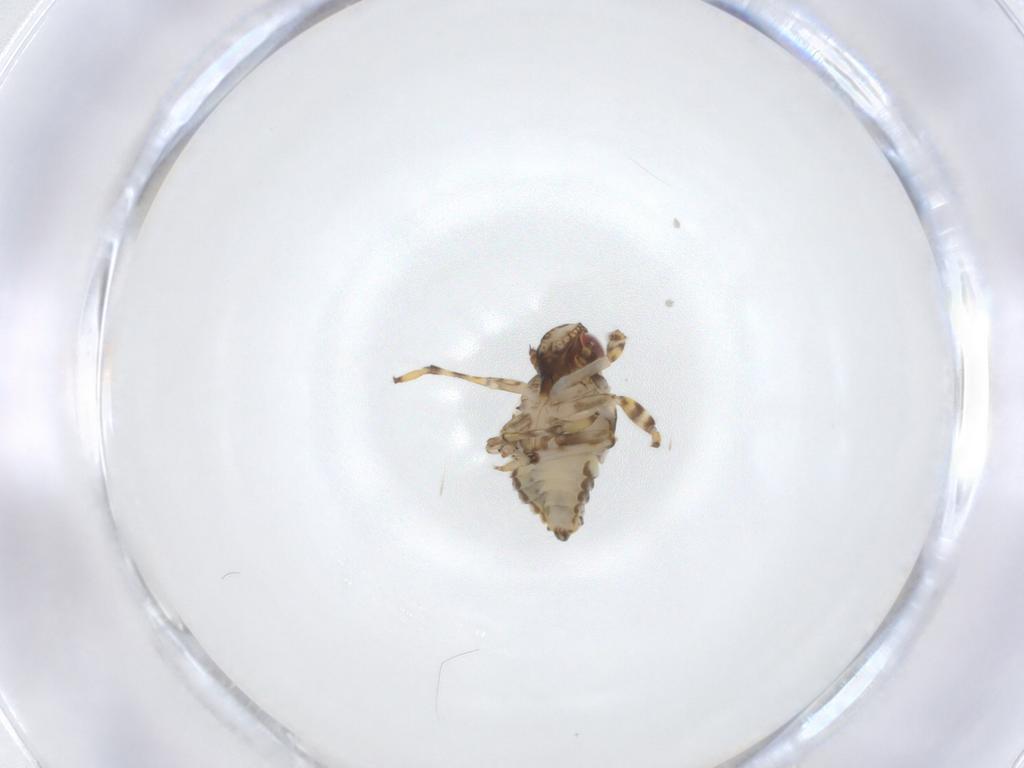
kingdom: Animalia
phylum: Arthropoda
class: Insecta
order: Hemiptera
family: Issidae
